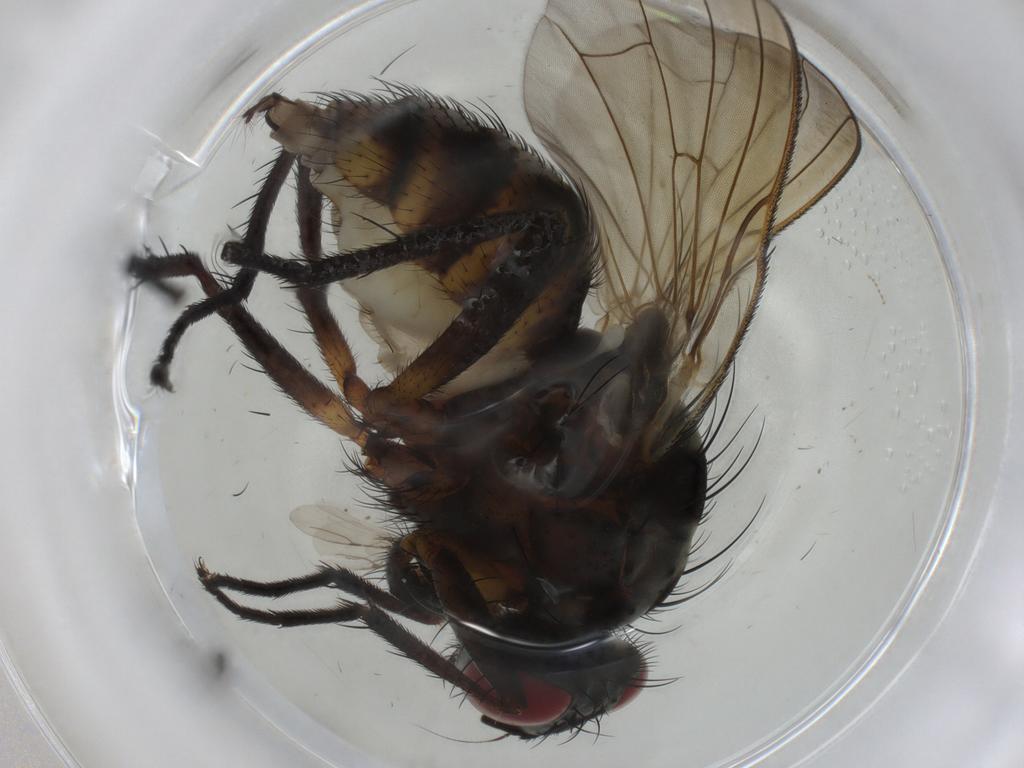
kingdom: Animalia
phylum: Arthropoda
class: Insecta
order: Diptera
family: Anthomyiidae
